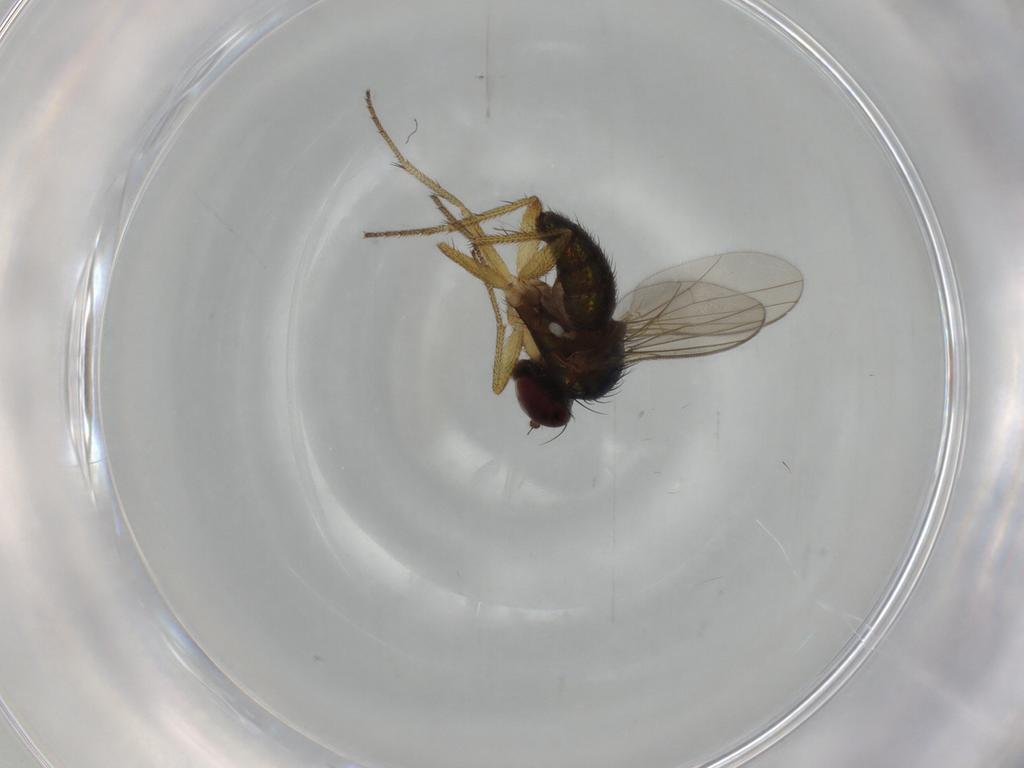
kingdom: Animalia
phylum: Arthropoda
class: Insecta
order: Diptera
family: Dolichopodidae
